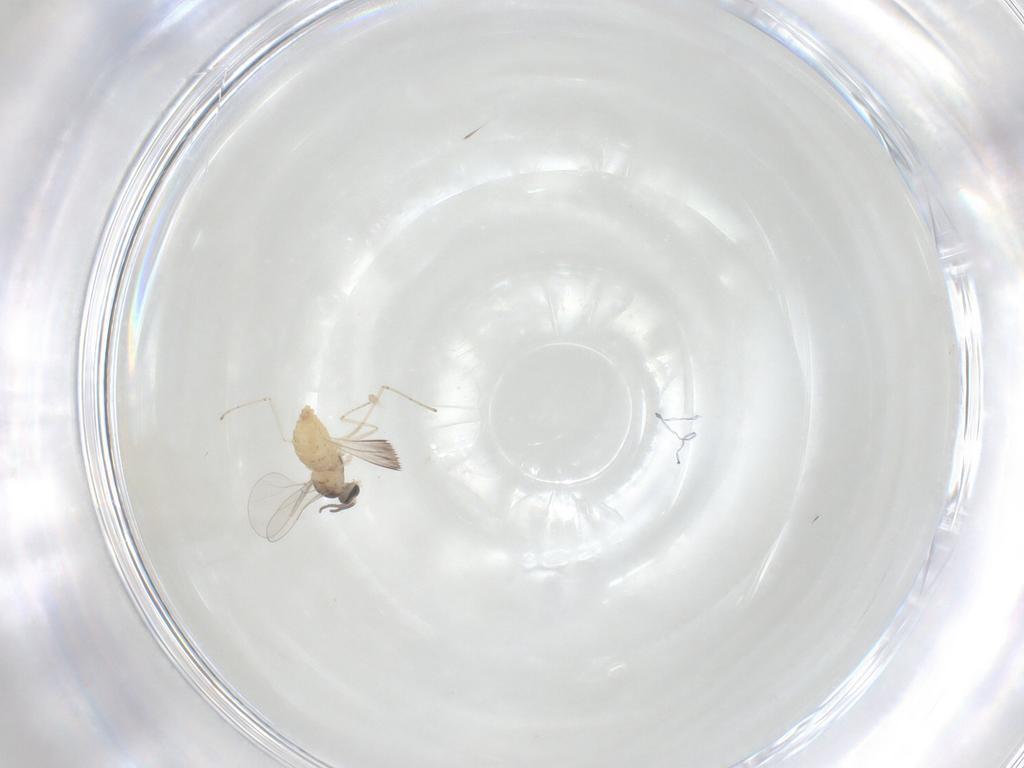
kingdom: Animalia
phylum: Arthropoda
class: Insecta
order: Diptera
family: Cecidomyiidae
